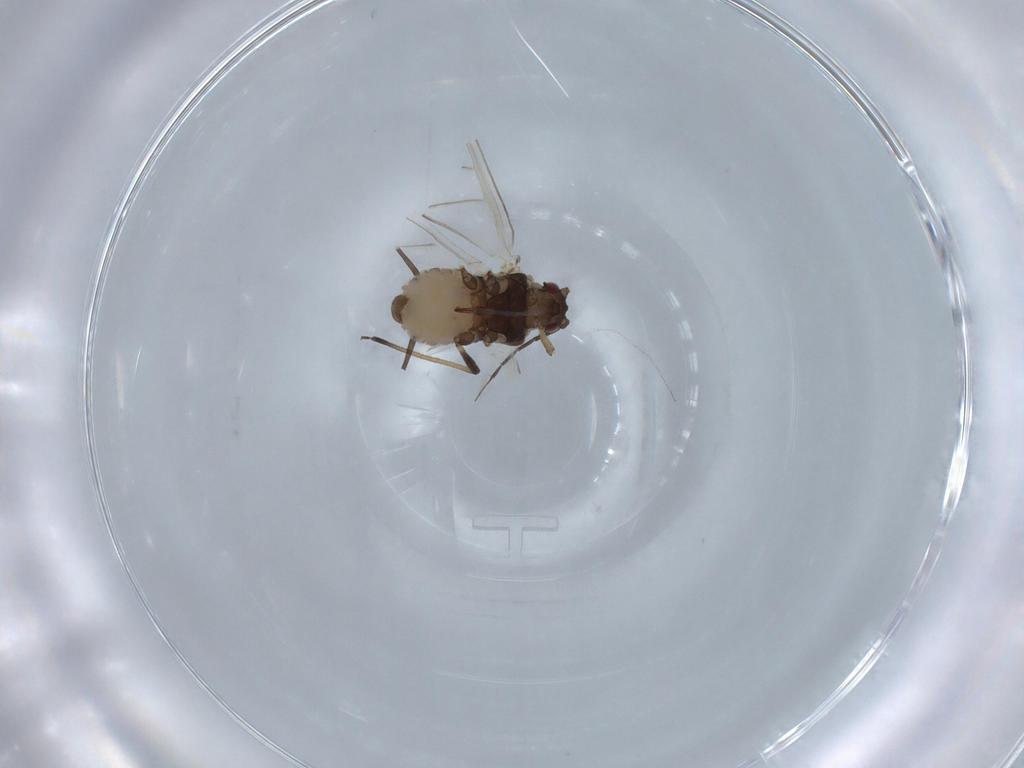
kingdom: Animalia
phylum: Arthropoda
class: Insecta
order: Hemiptera
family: Aphididae
